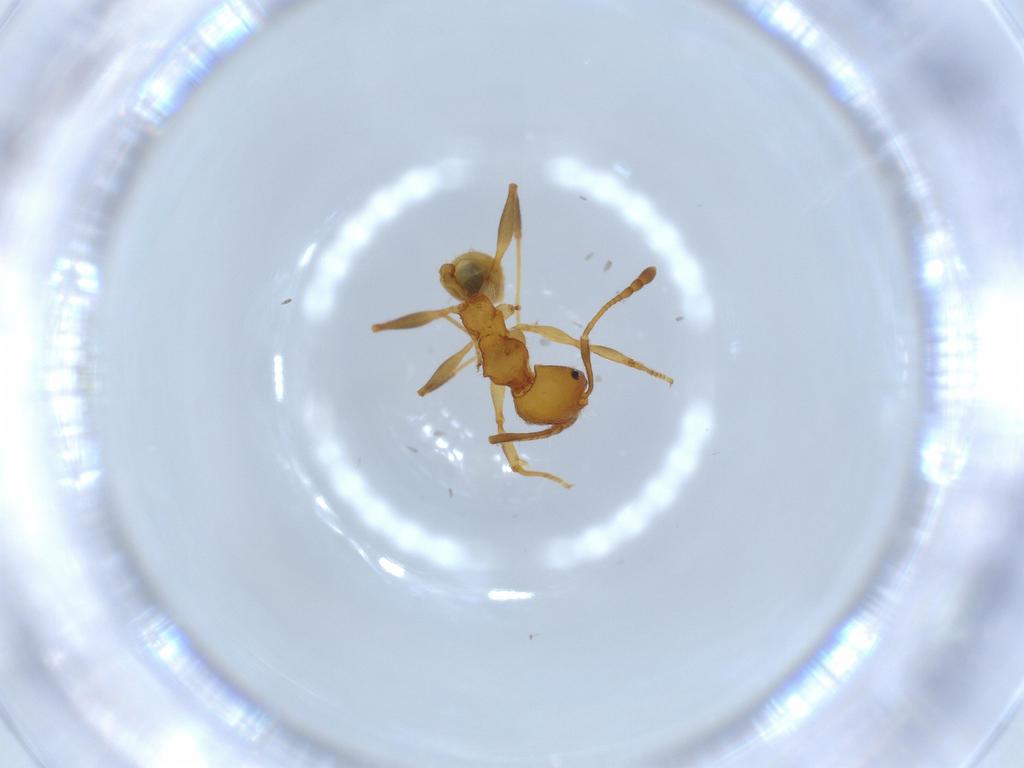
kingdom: Animalia
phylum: Arthropoda
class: Insecta
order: Hymenoptera
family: Formicidae
